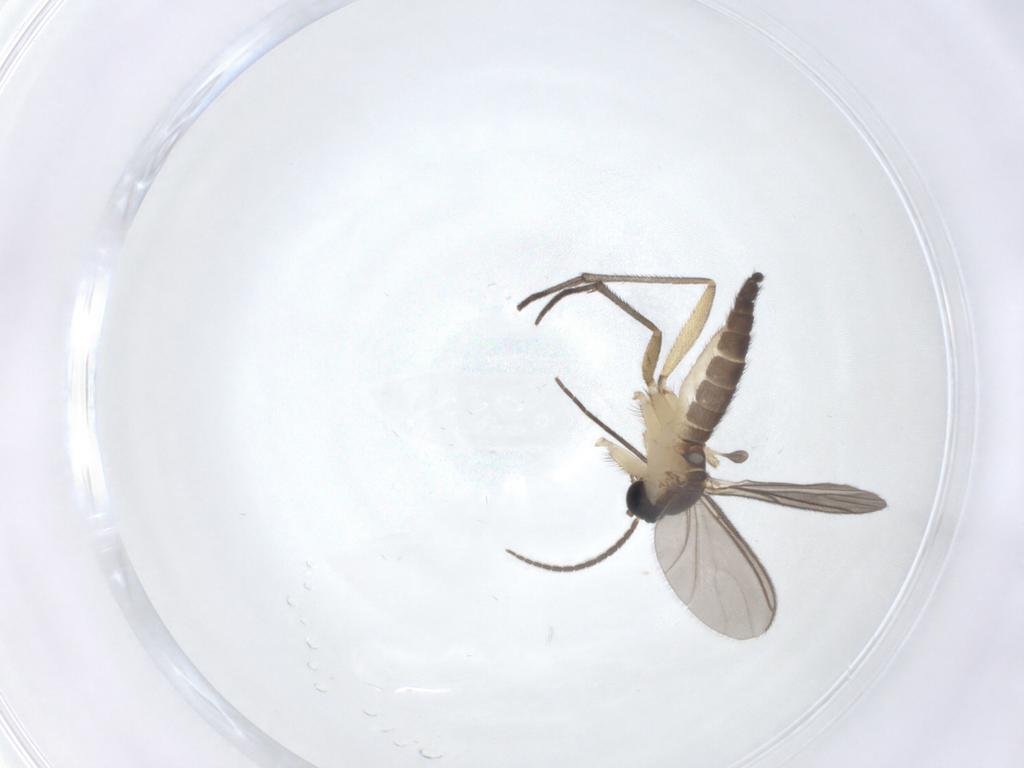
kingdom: Animalia
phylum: Arthropoda
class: Insecta
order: Diptera
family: Sciaridae
